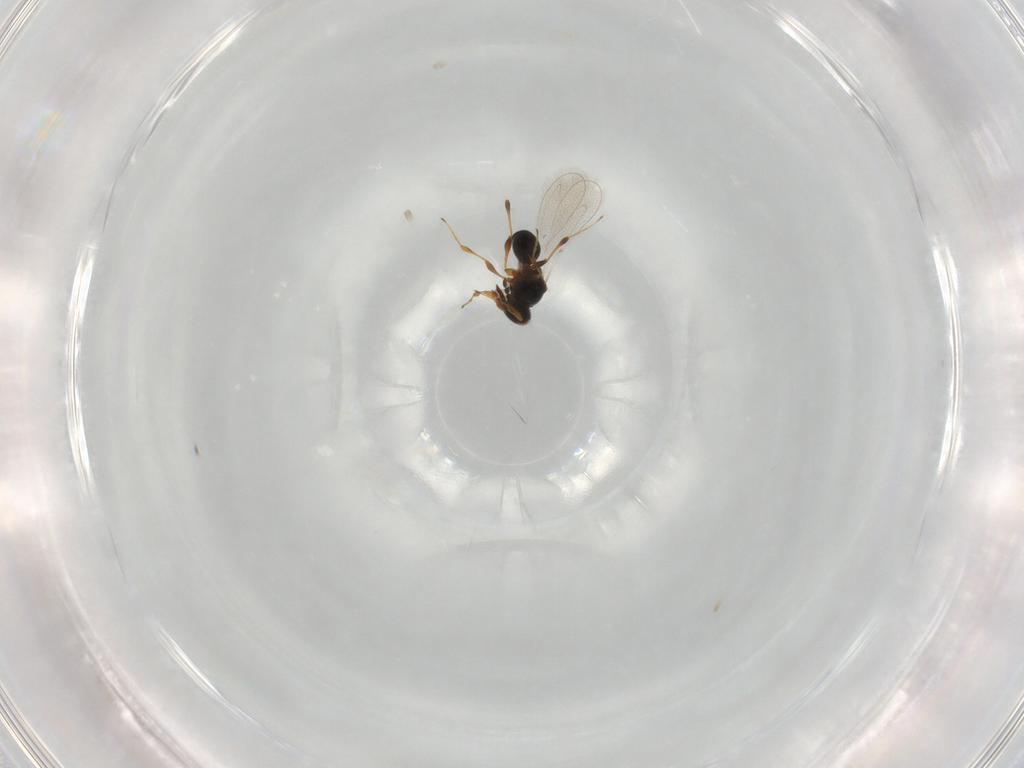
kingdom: Animalia
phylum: Arthropoda
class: Insecta
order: Hymenoptera
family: Platygastridae
